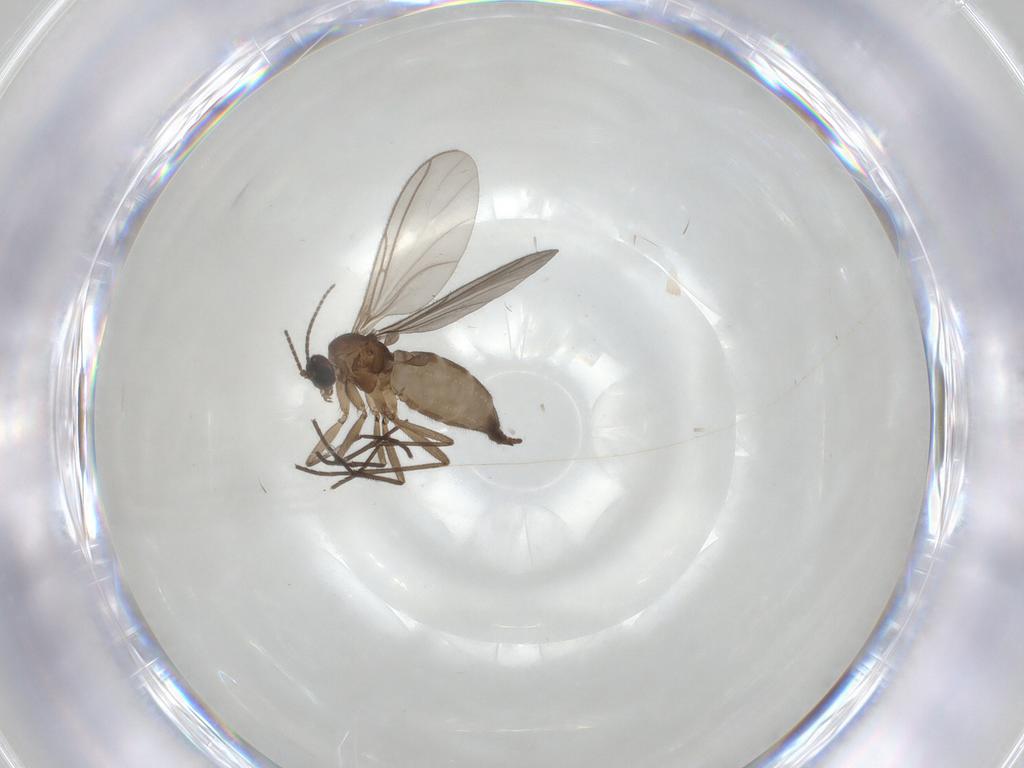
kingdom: Animalia
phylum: Arthropoda
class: Insecta
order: Diptera
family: Sciaridae
